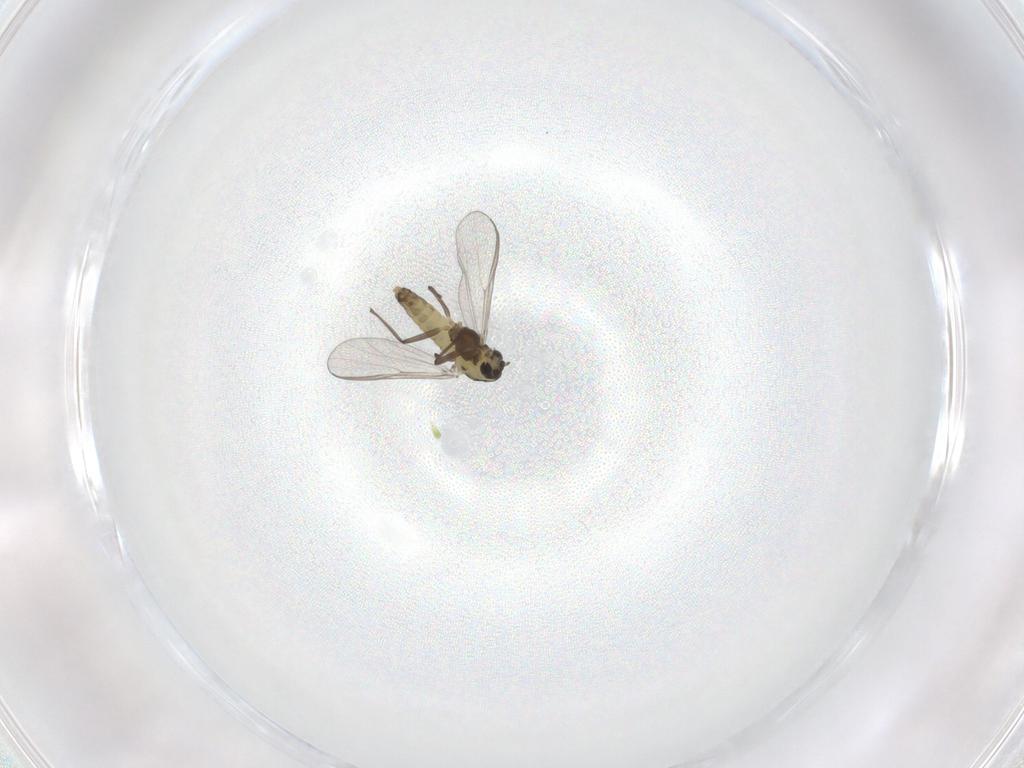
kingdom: Animalia
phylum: Arthropoda
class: Insecta
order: Diptera
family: Chironomidae
